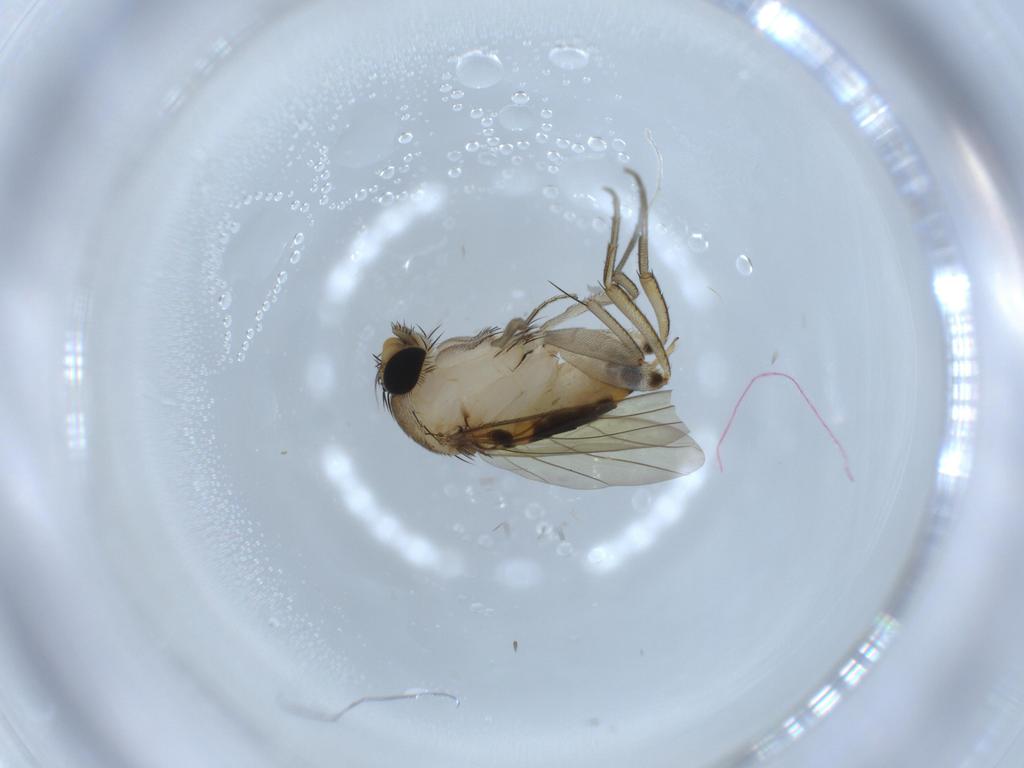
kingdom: Animalia
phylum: Arthropoda
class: Insecta
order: Diptera
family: Phoridae
